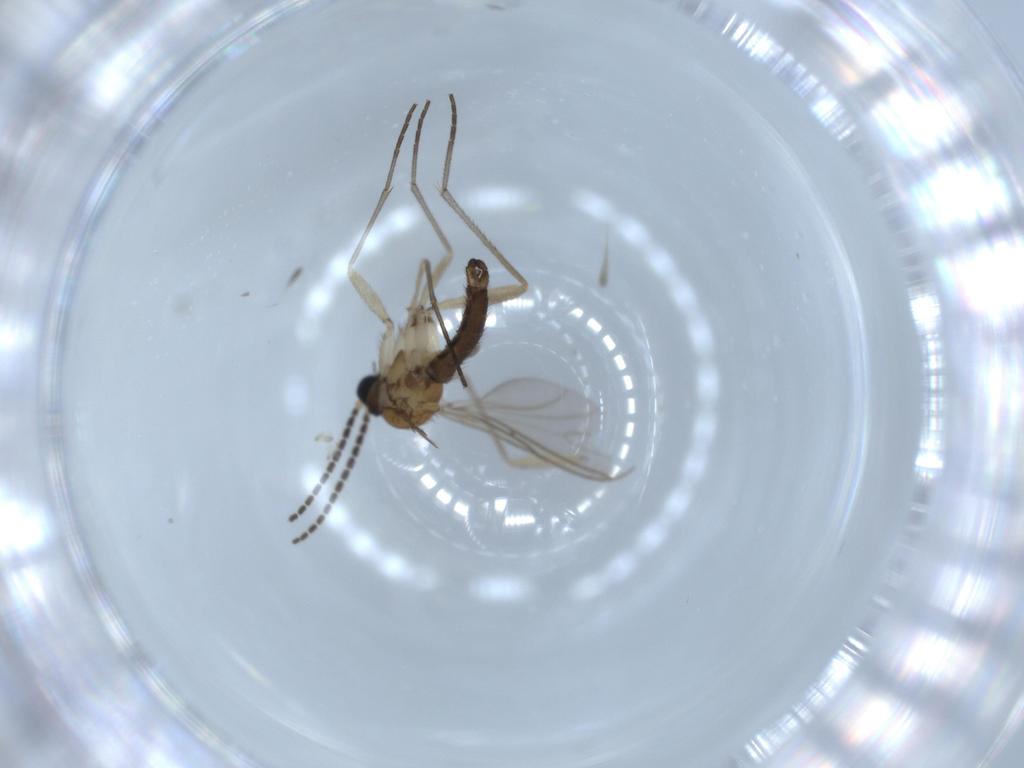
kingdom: Animalia
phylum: Arthropoda
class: Insecta
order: Diptera
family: Sciaridae
